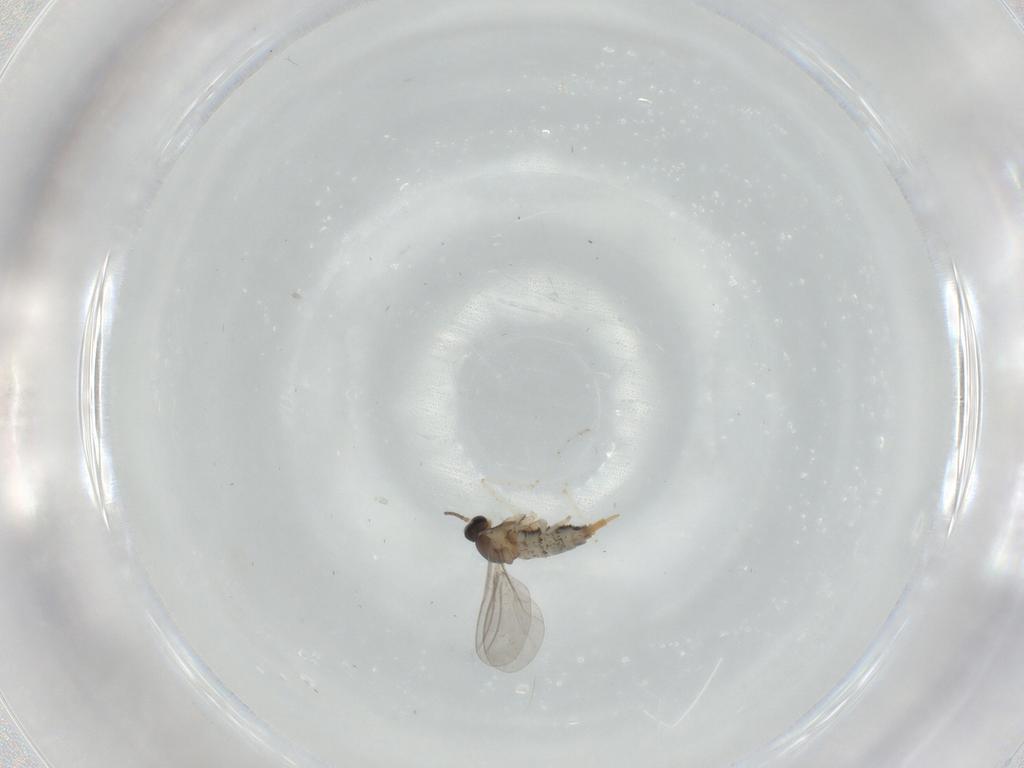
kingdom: Animalia
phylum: Arthropoda
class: Insecta
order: Diptera
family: Cecidomyiidae
